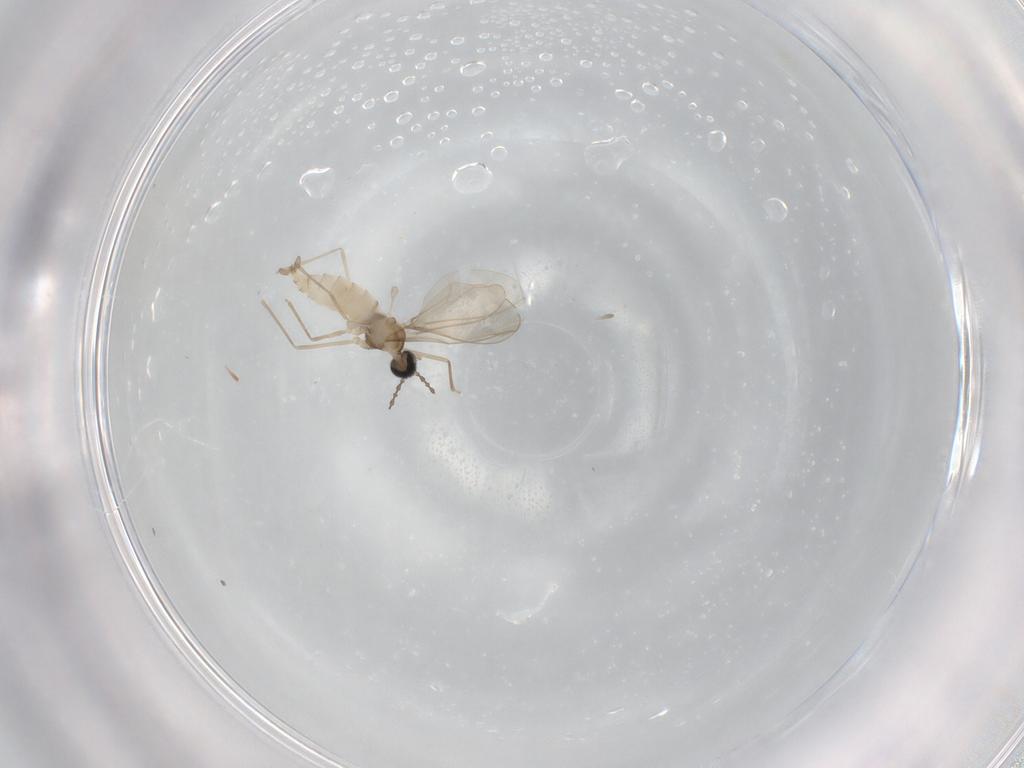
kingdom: Animalia
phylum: Arthropoda
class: Insecta
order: Diptera
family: Cecidomyiidae
